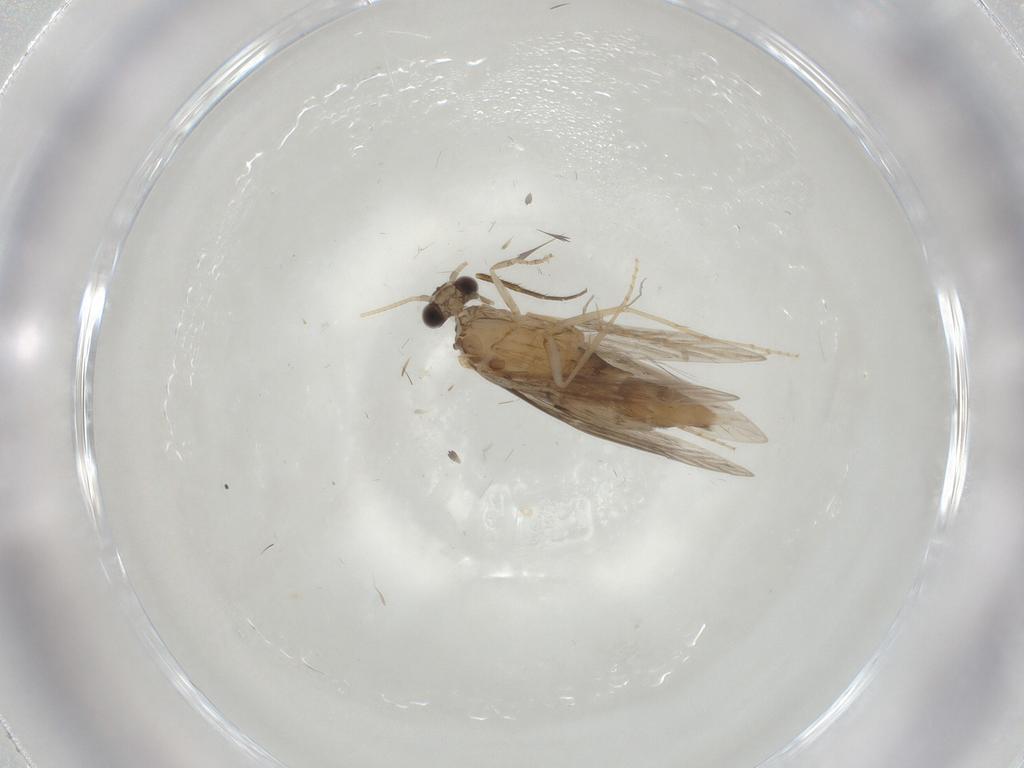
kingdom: Animalia
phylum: Arthropoda
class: Insecta
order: Trichoptera
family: Hydroptilidae
